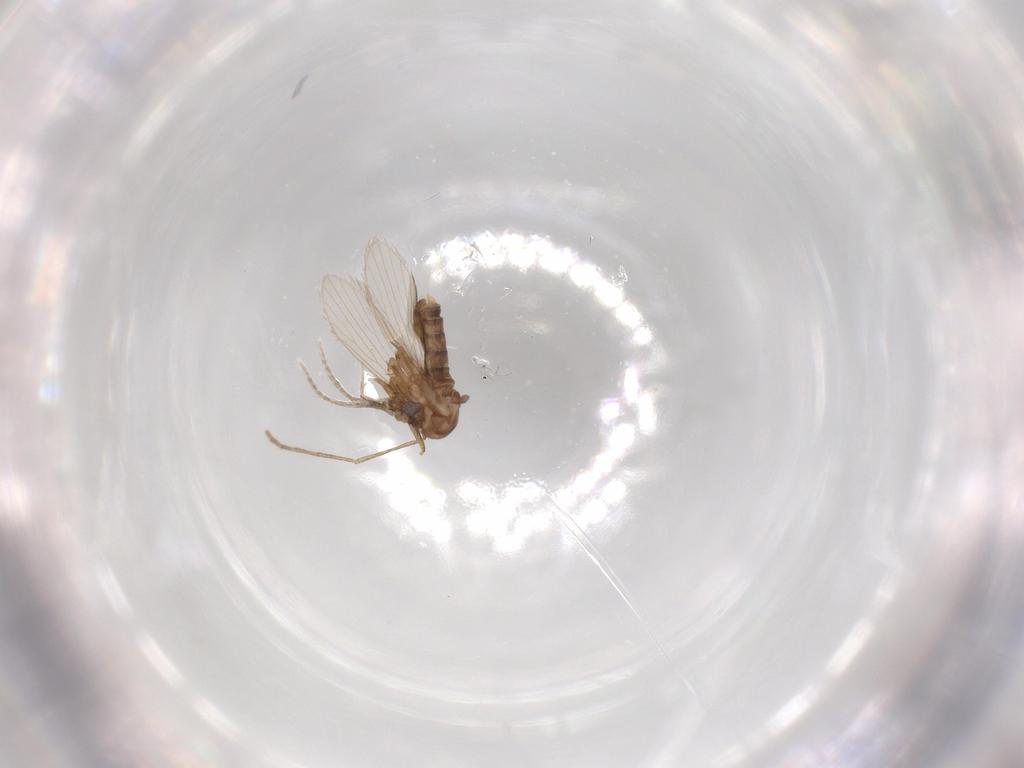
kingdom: Animalia
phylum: Arthropoda
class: Insecta
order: Diptera
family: Psychodidae
